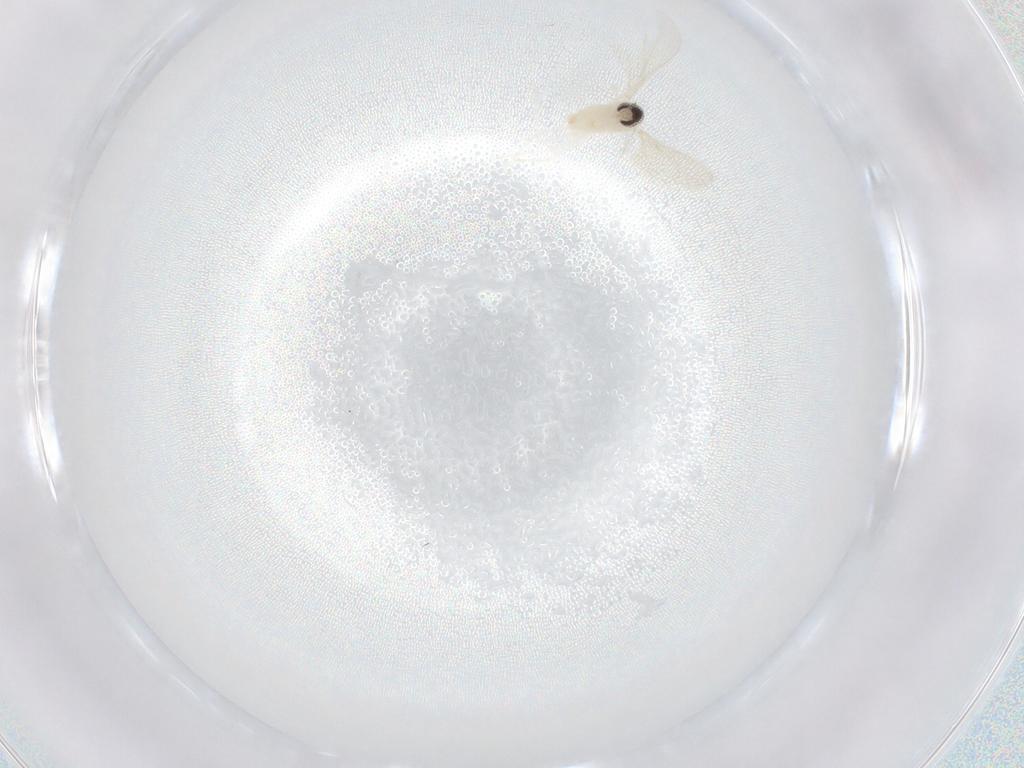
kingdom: Animalia
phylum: Arthropoda
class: Insecta
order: Diptera
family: Cecidomyiidae
